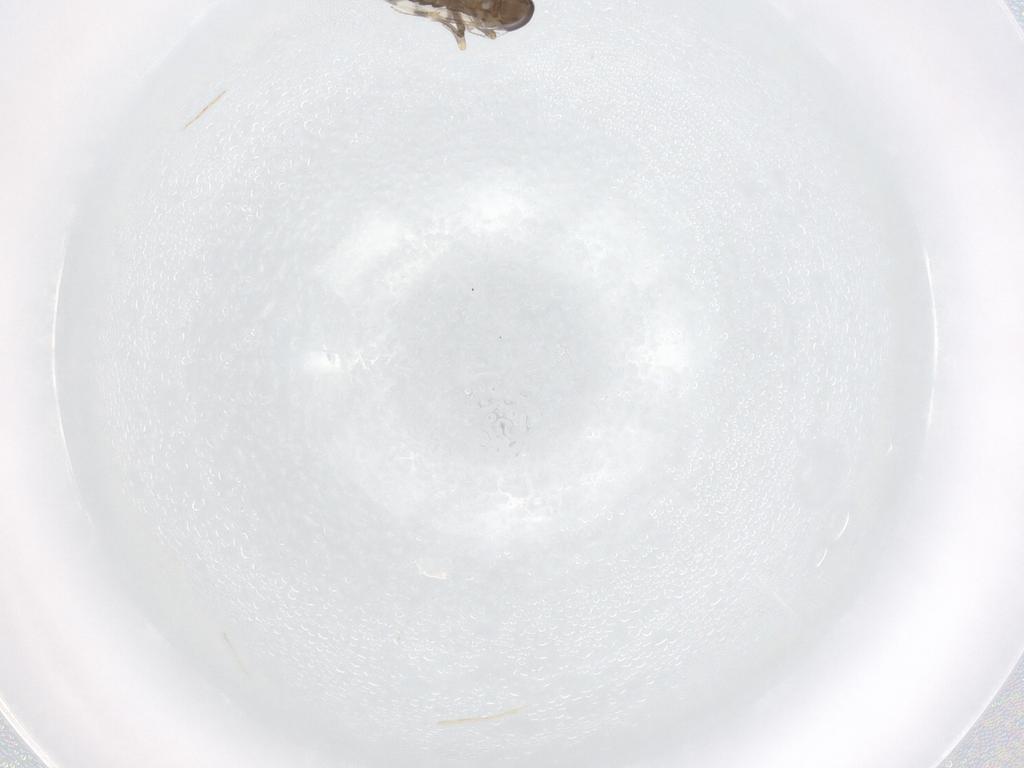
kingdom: Animalia
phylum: Arthropoda
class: Insecta
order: Diptera
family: Ceratopogonidae
